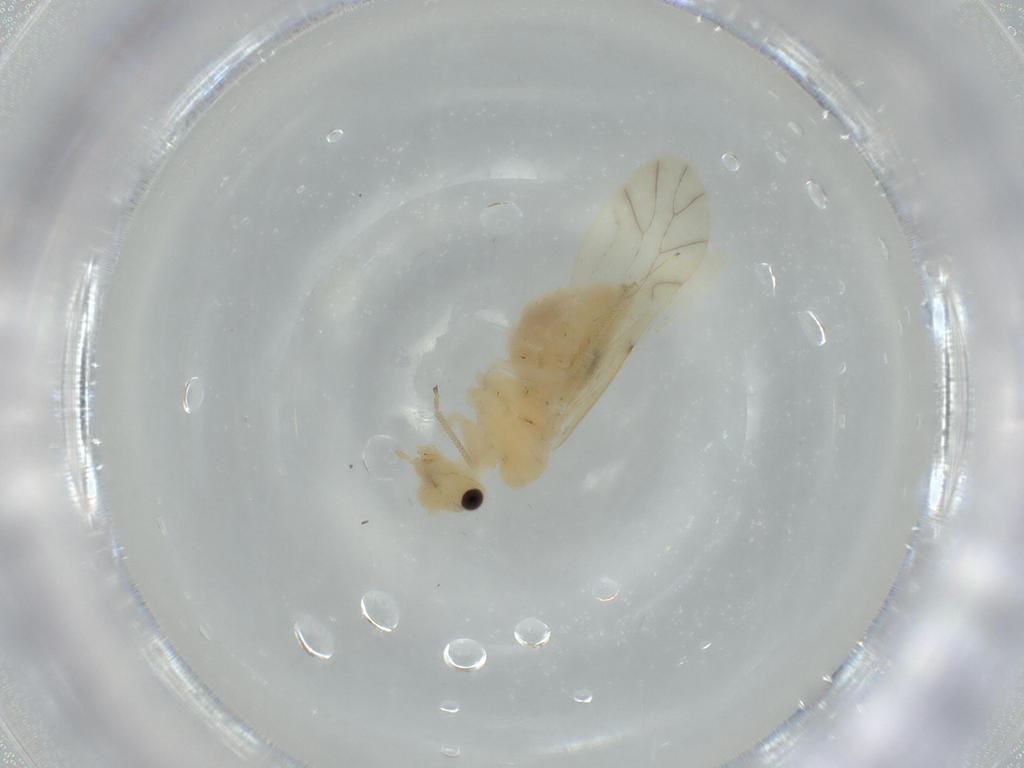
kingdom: Animalia
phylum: Arthropoda
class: Insecta
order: Psocodea
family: Caeciliusidae
